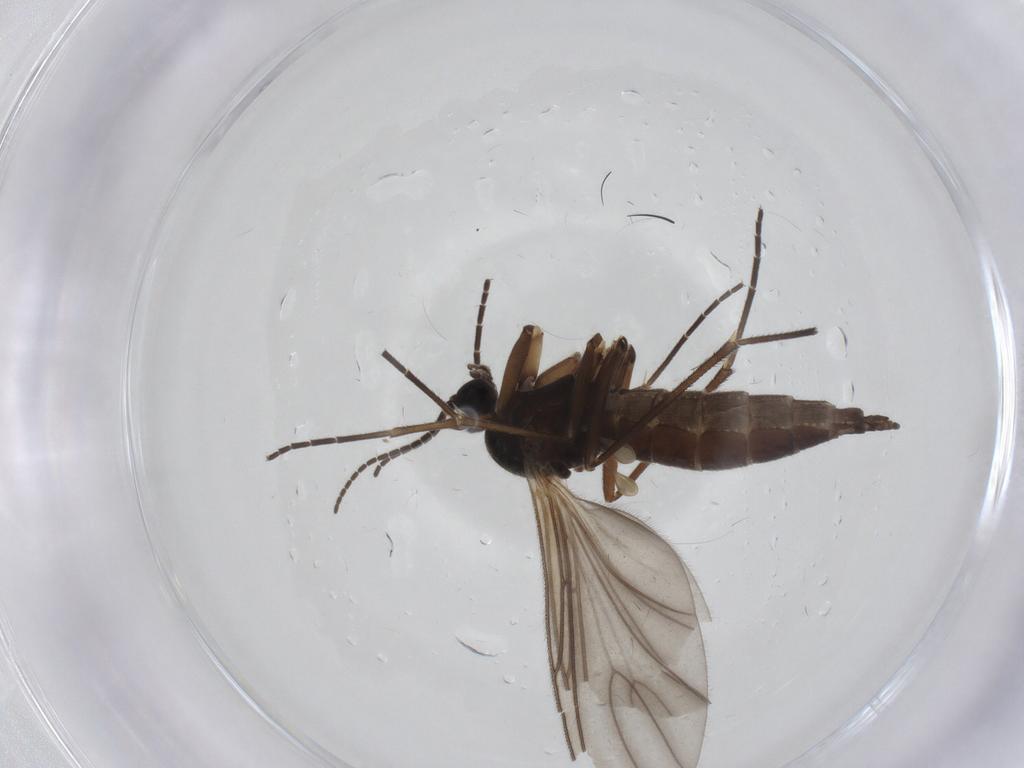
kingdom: Animalia
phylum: Arthropoda
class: Insecta
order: Diptera
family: Sciaridae
